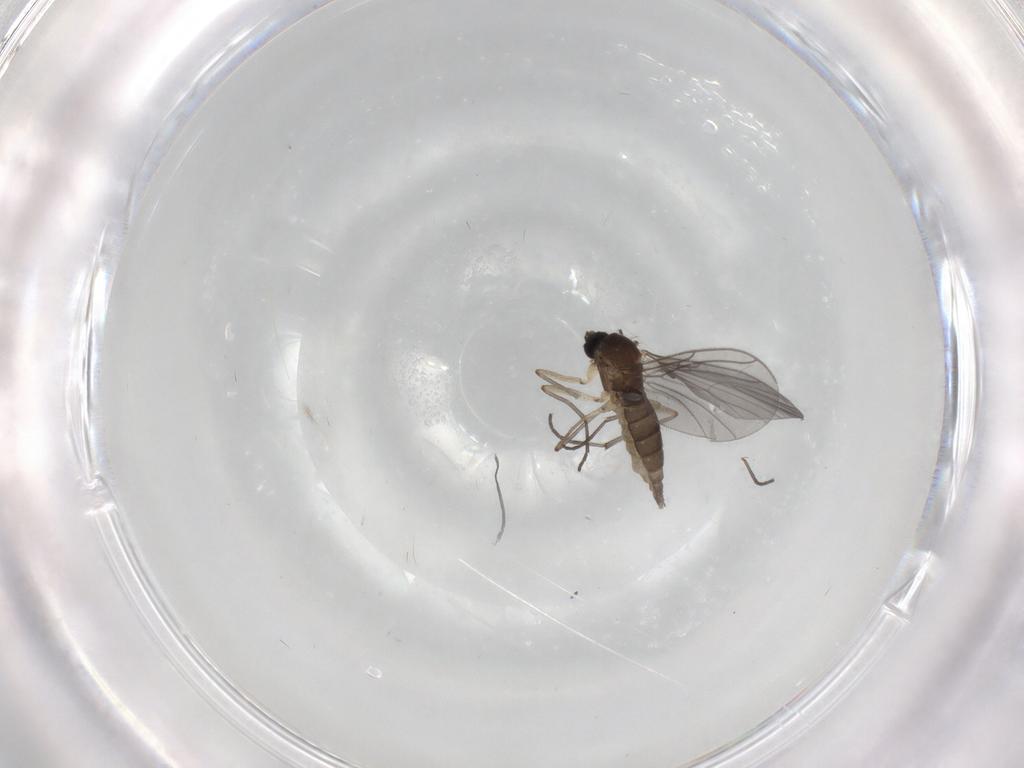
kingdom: Animalia
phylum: Arthropoda
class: Insecta
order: Diptera
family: Sciaridae
